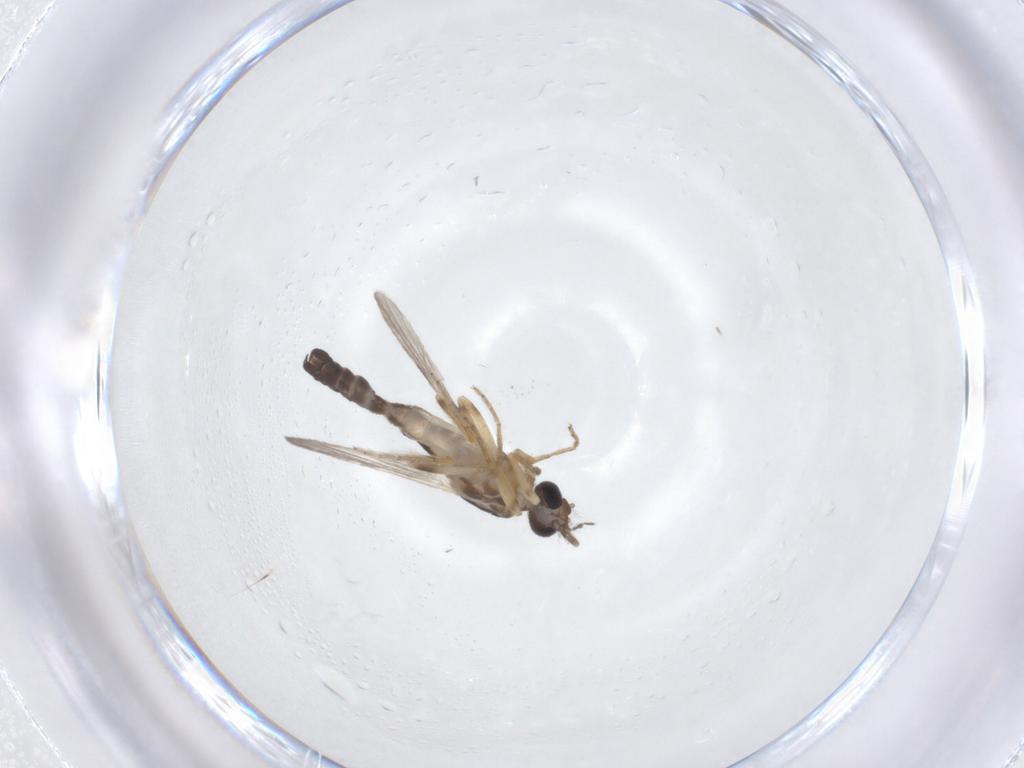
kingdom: Animalia
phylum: Arthropoda
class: Insecta
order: Diptera
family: Ceratopogonidae
